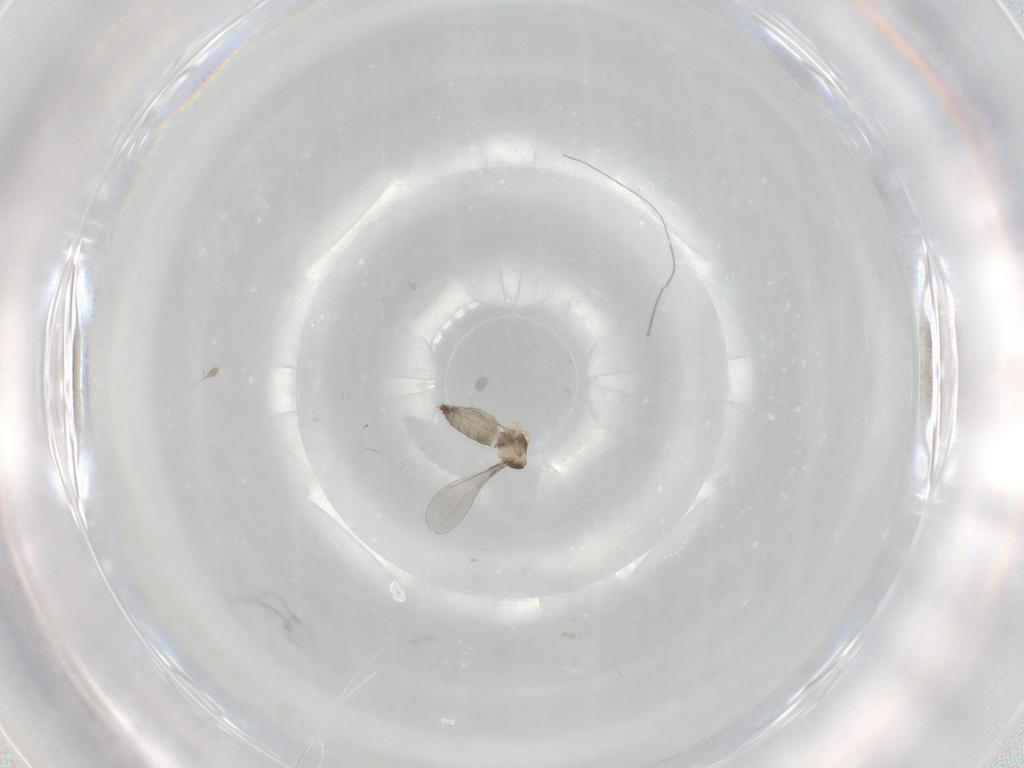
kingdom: Animalia
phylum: Arthropoda
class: Insecta
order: Diptera
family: Cecidomyiidae
